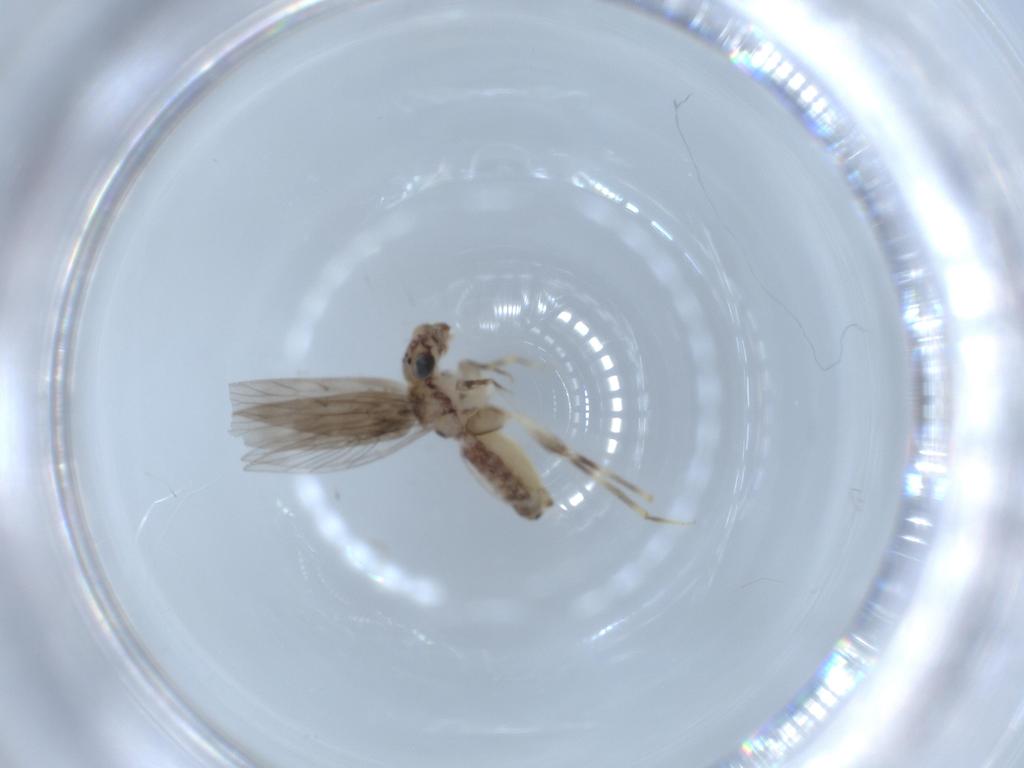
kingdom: Animalia
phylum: Arthropoda
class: Insecta
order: Psocodea
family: Lepidopsocidae
